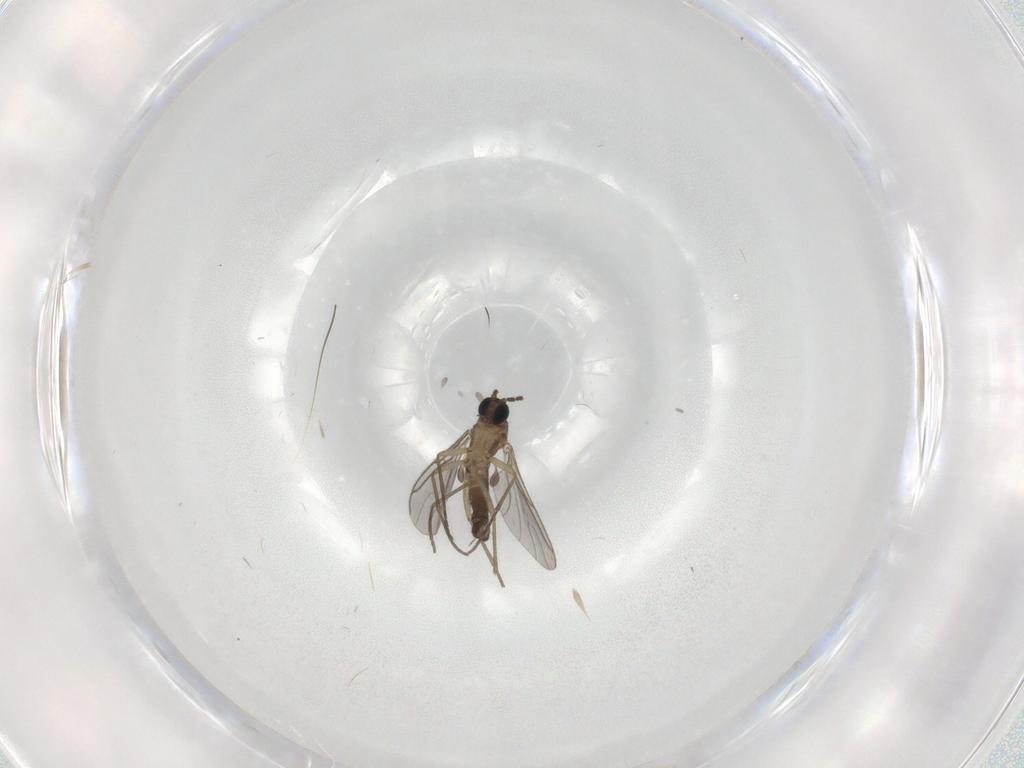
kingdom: Animalia
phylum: Arthropoda
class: Insecta
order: Diptera
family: Sciaridae
